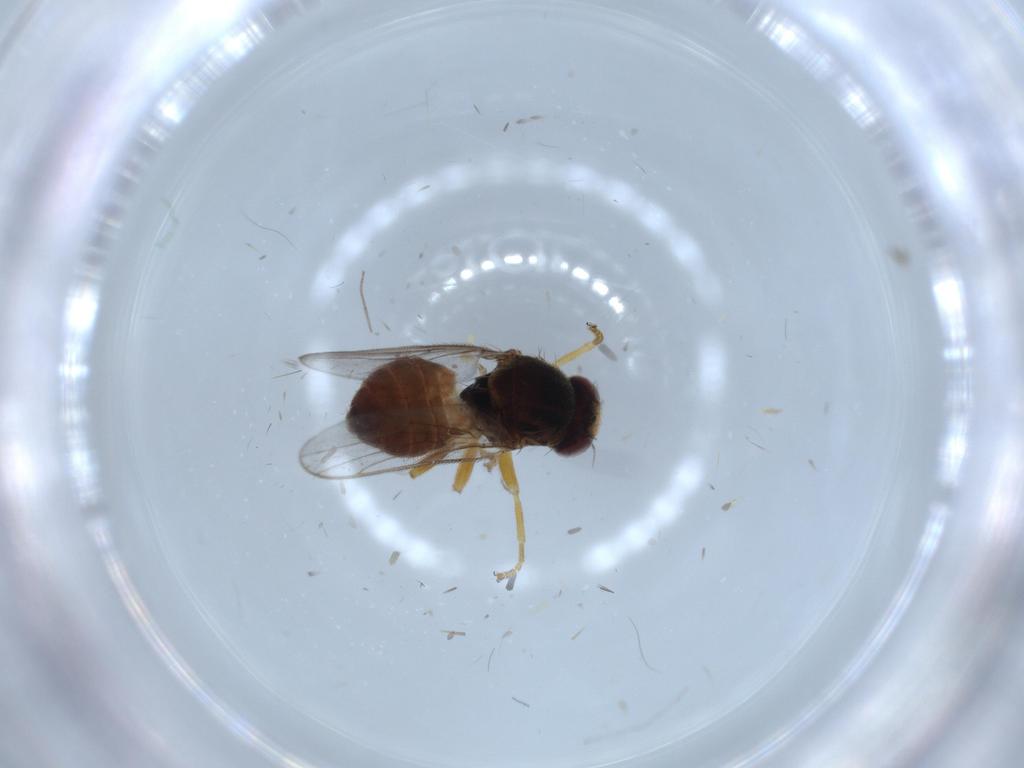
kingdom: Animalia
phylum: Arthropoda
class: Insecta
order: Diptera
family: Chloropidae
